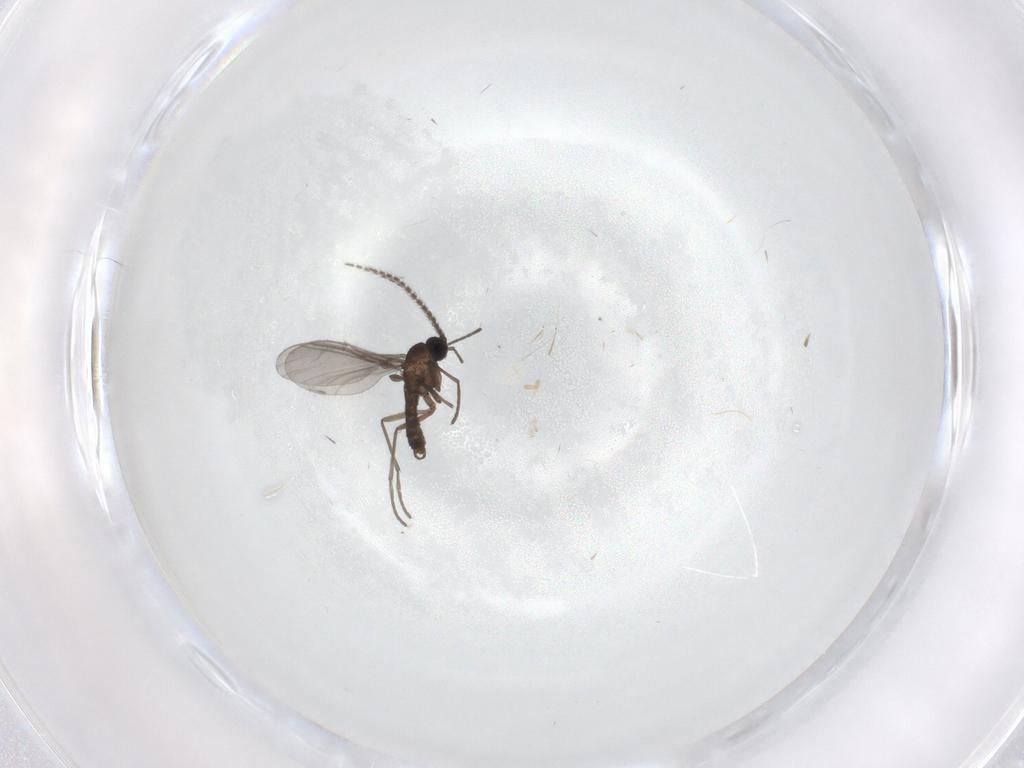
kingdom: Animalia
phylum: Arthropoda
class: Insecta
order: Diptera
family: Sciaridae
